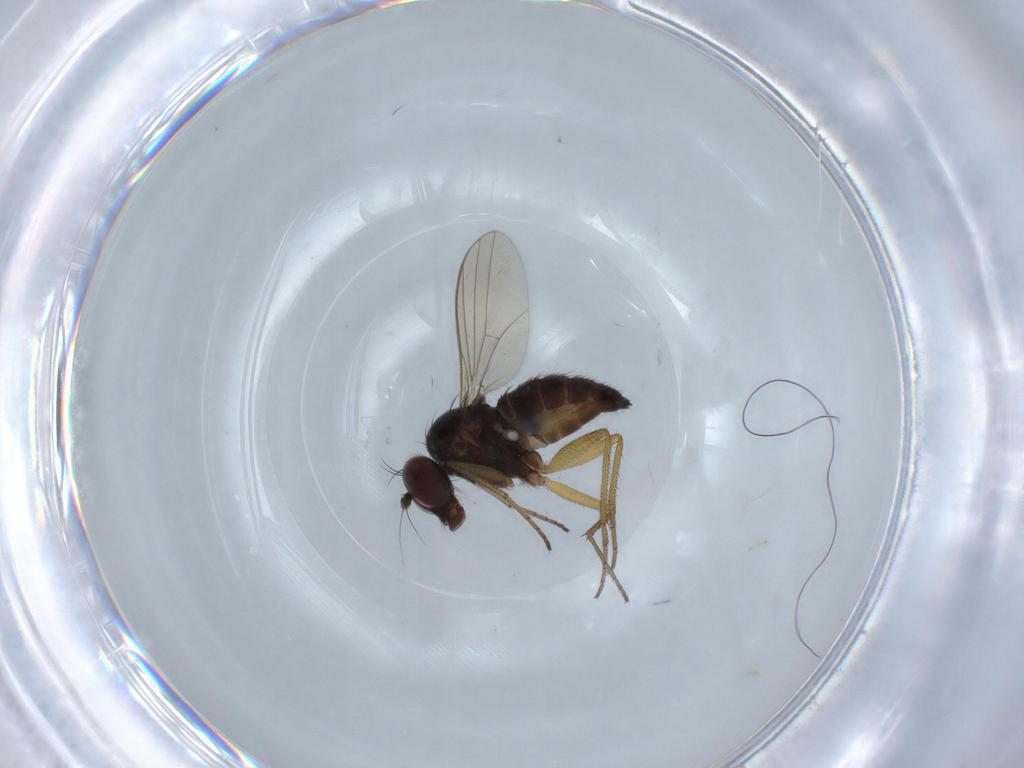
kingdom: Animalia
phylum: Arthropoda
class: Insecta
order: Diptera
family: Dolichopodidae
